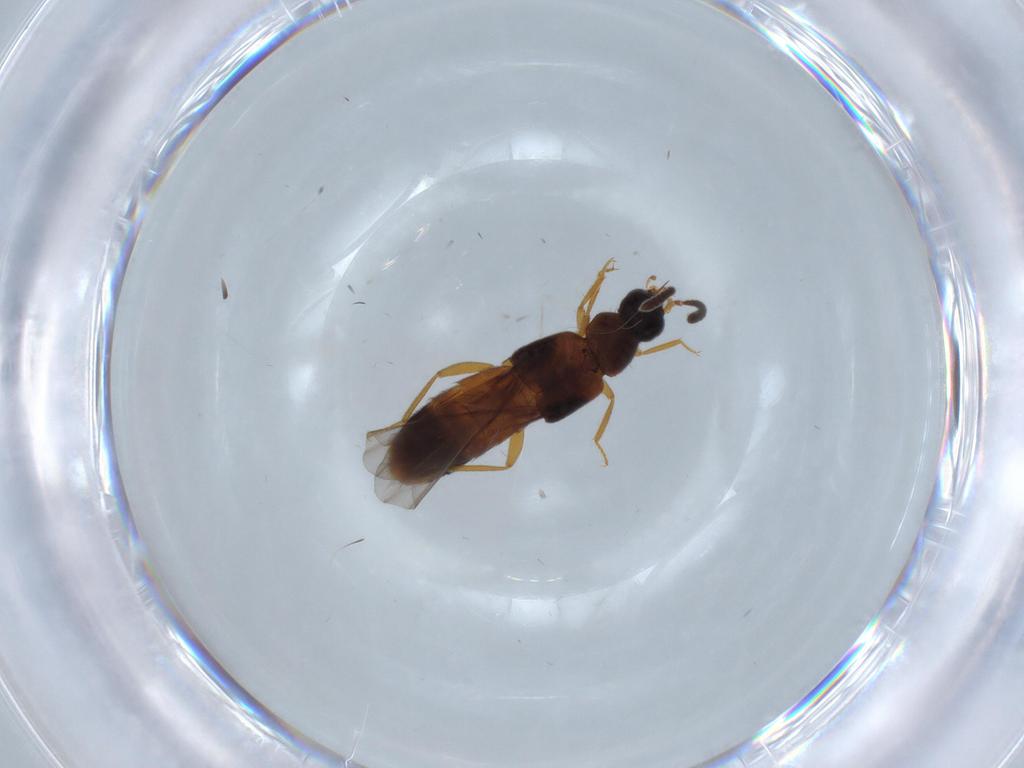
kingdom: Animalia
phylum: Arthropoda
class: Insecta
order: Coleoptera
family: Staphylinidae
